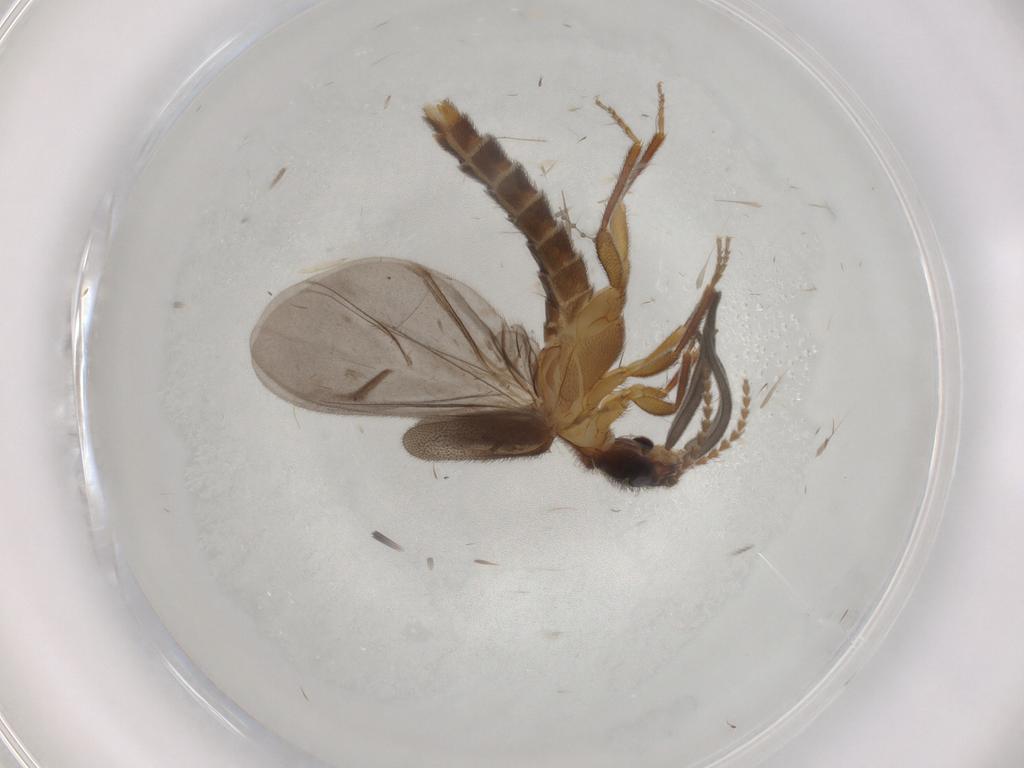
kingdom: Animalia
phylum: Arthropoda
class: Insecta
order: Coleoptera
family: Omethidae
